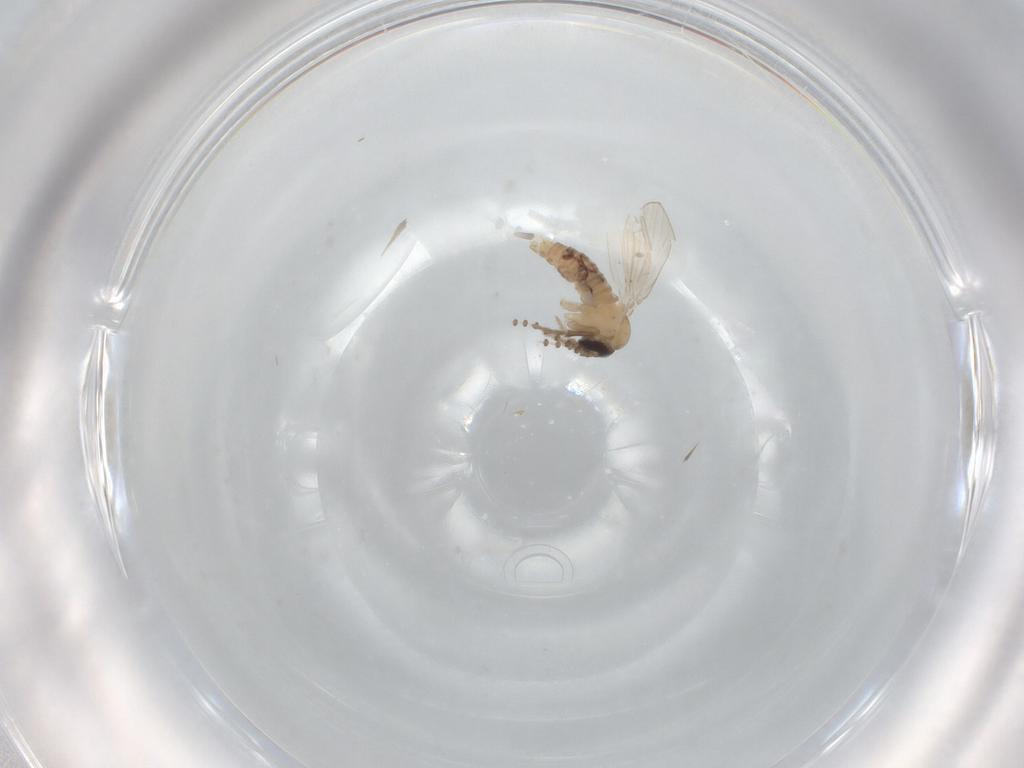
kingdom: Animalia
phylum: Arthropoda
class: Insecta
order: Diptera
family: Psychodidae
